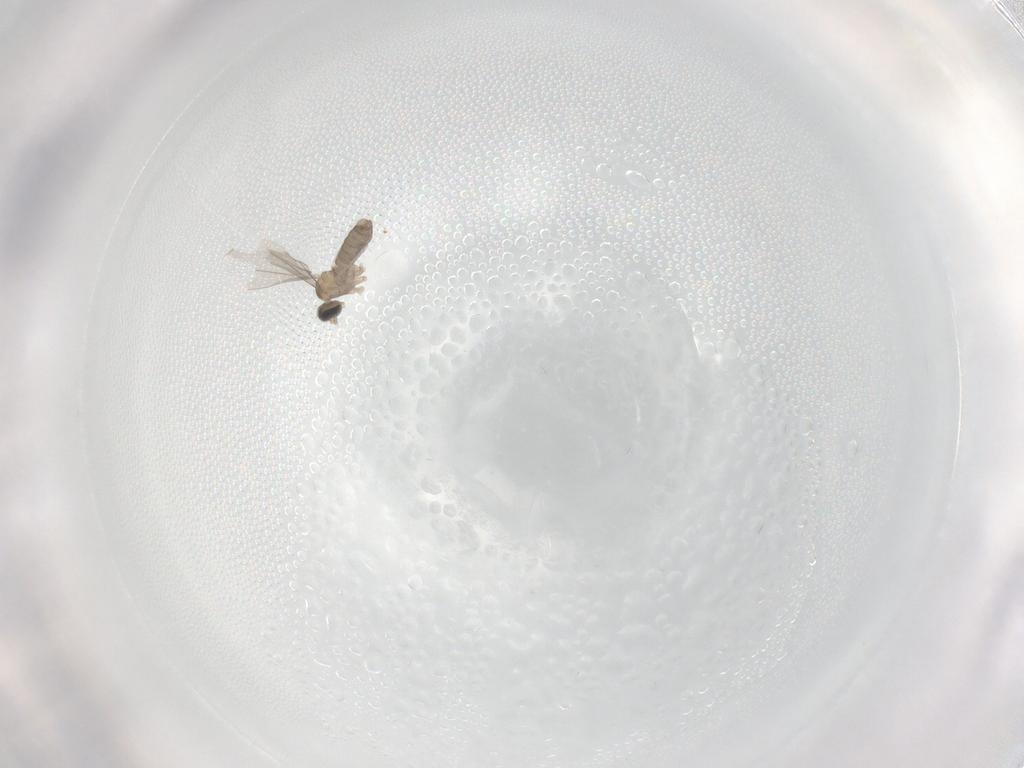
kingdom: Animalia
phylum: Arthropoda
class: Insecta
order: Diptera
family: Cecidomyiidae
